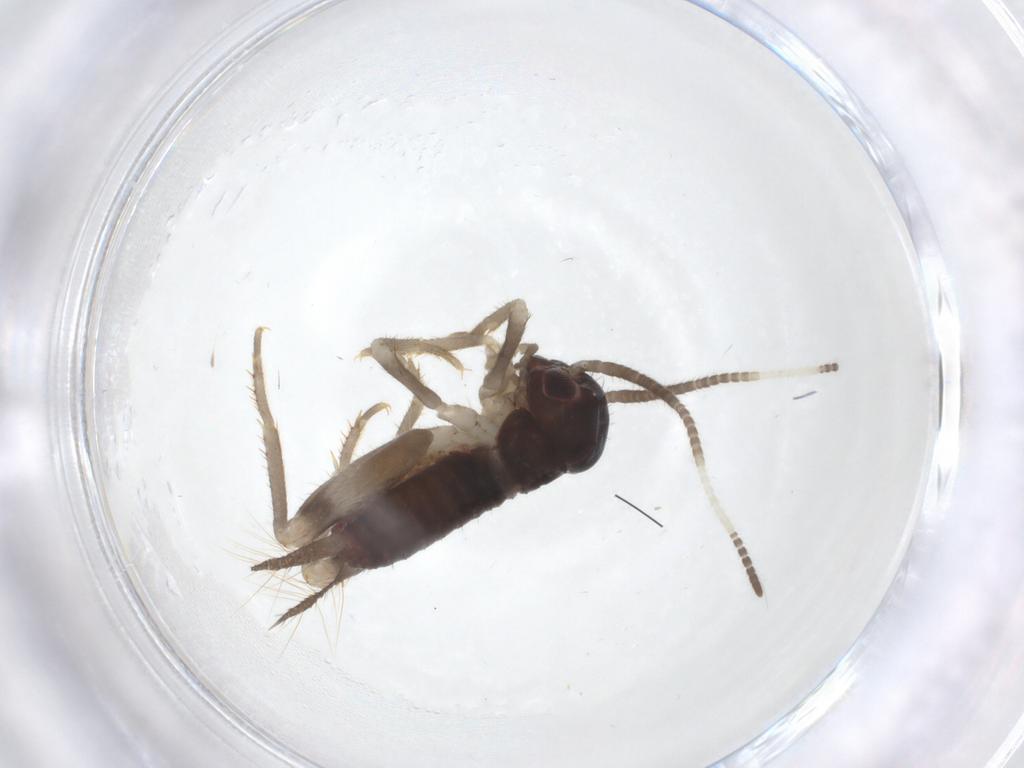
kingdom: Animalia
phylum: Arthropoda
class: Insecta
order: Orthoptera
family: Gryllidae
